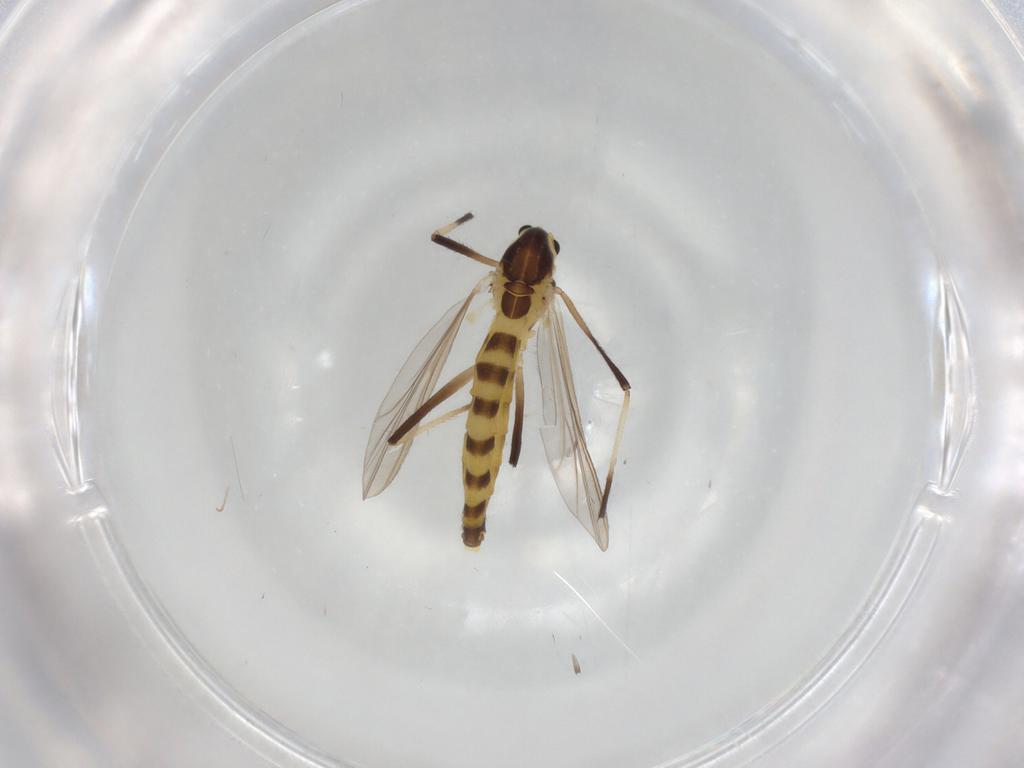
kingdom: Animalia
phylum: Arthropoda
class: Insecta
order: Diptera
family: Chironomidae
